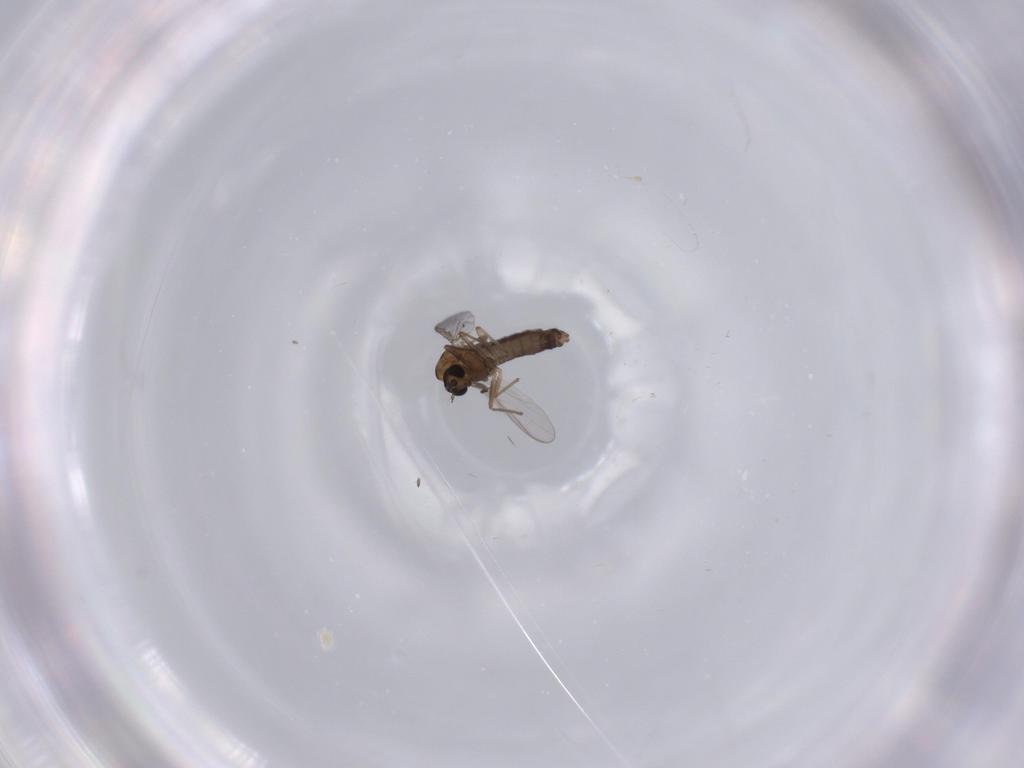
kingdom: Animalia
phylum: Arthropoda
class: Insecta
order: Diptera
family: Chironomidae
